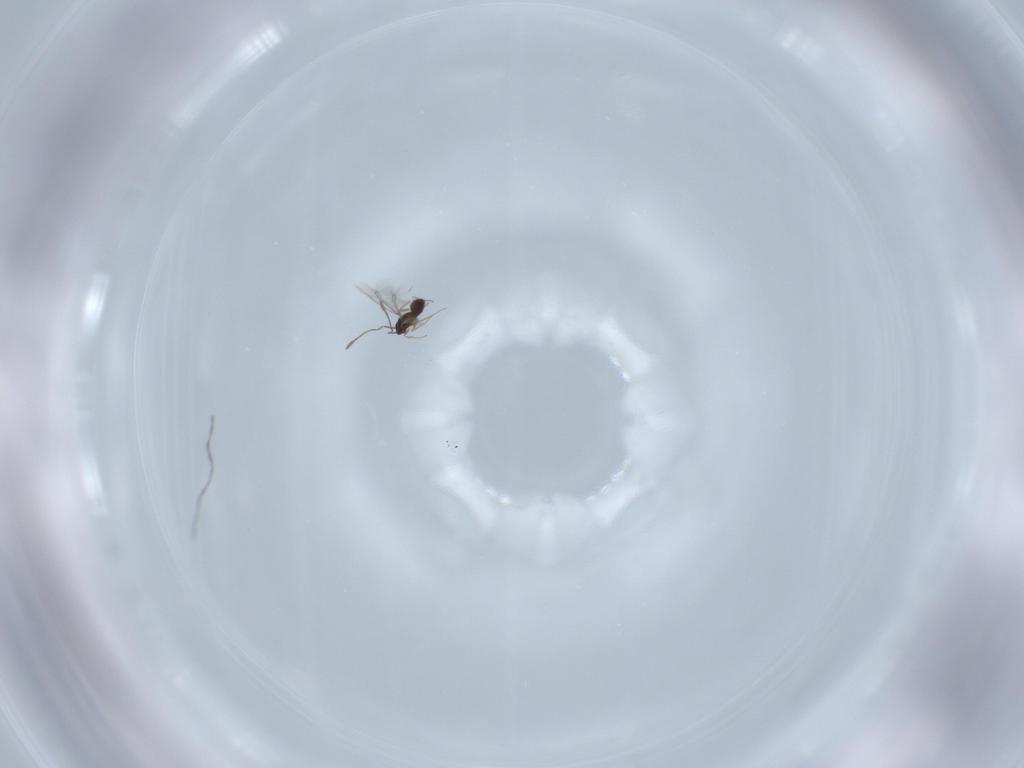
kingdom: Animalia
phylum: Arthropoda
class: Insecta
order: Hymenoptera
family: Mymaridae
